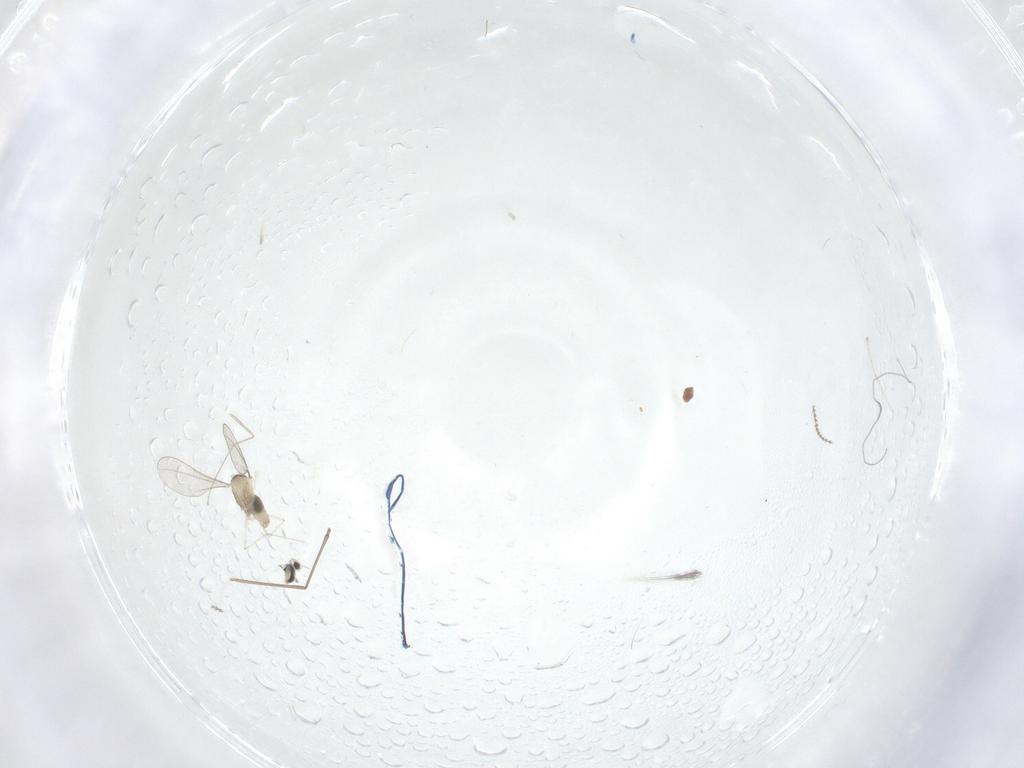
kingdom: Animalia
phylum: Arthropoda
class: Insecta
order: Diptera
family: Cecidomyiidae
